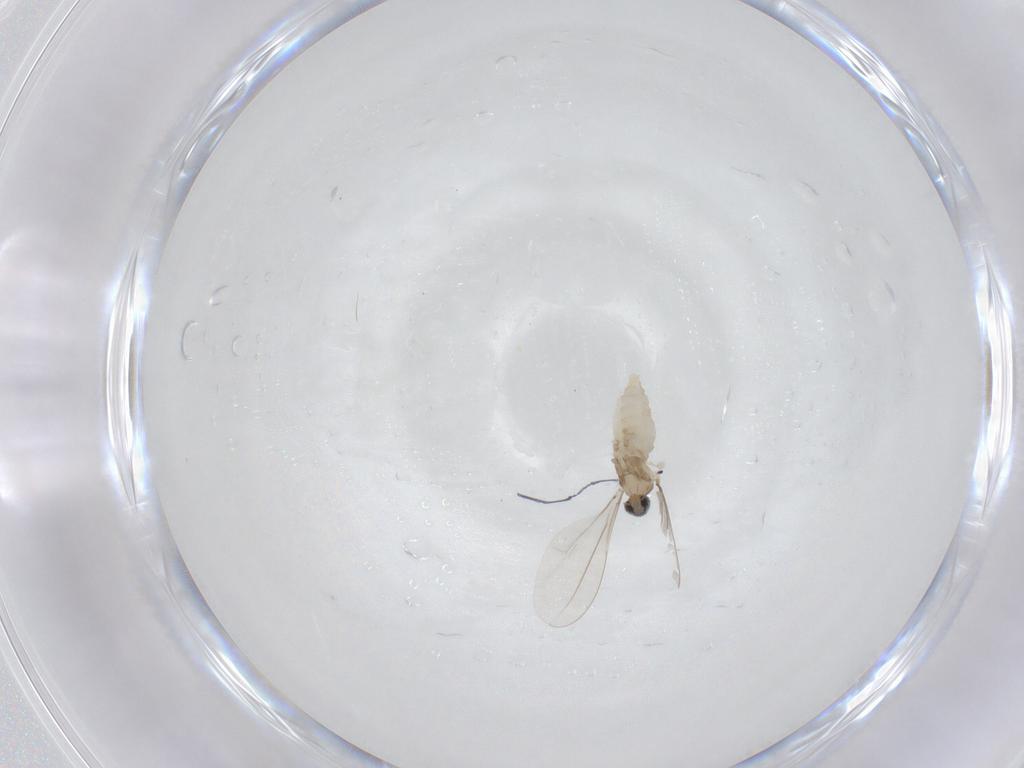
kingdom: Animalia
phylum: Arthropoda
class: Insecta
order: Diptera
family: Cecidomyiidae
